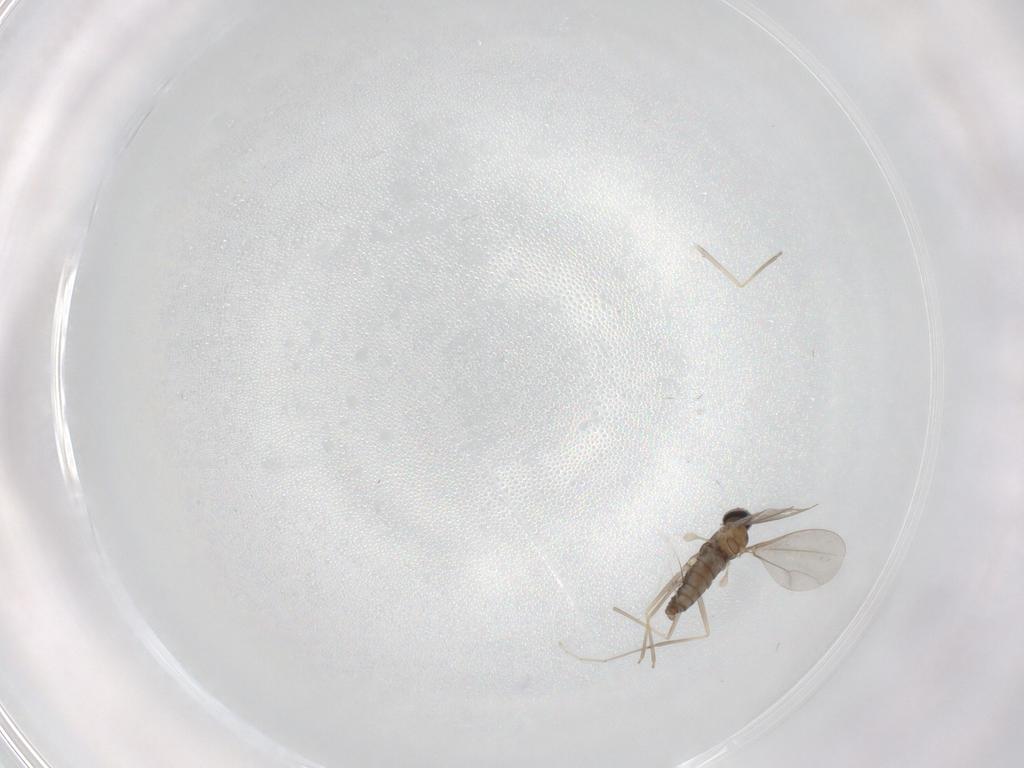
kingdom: Animalia
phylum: Arthropoda
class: Insecta
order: Diptera
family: Cecidomyiidae
